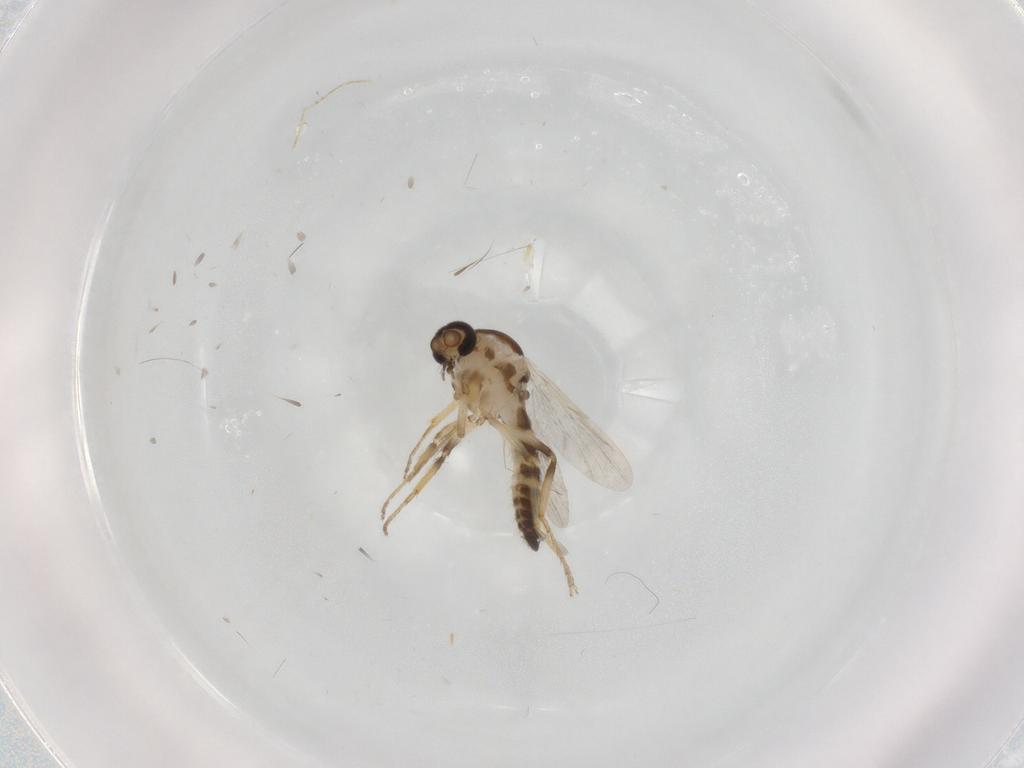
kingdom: Animalia
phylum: Arthropoda
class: Insecta
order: Diptera
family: Ceratopogonidae
